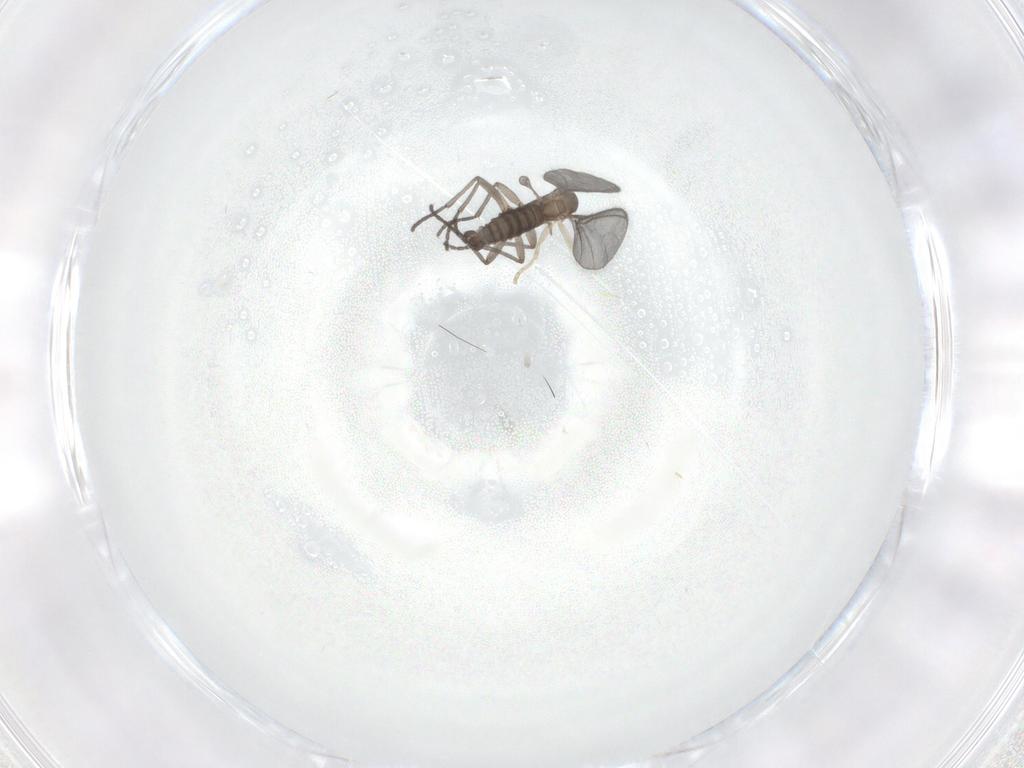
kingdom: Animalia
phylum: Arthropoda
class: Insecta
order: Diptera
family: Sciaridae
